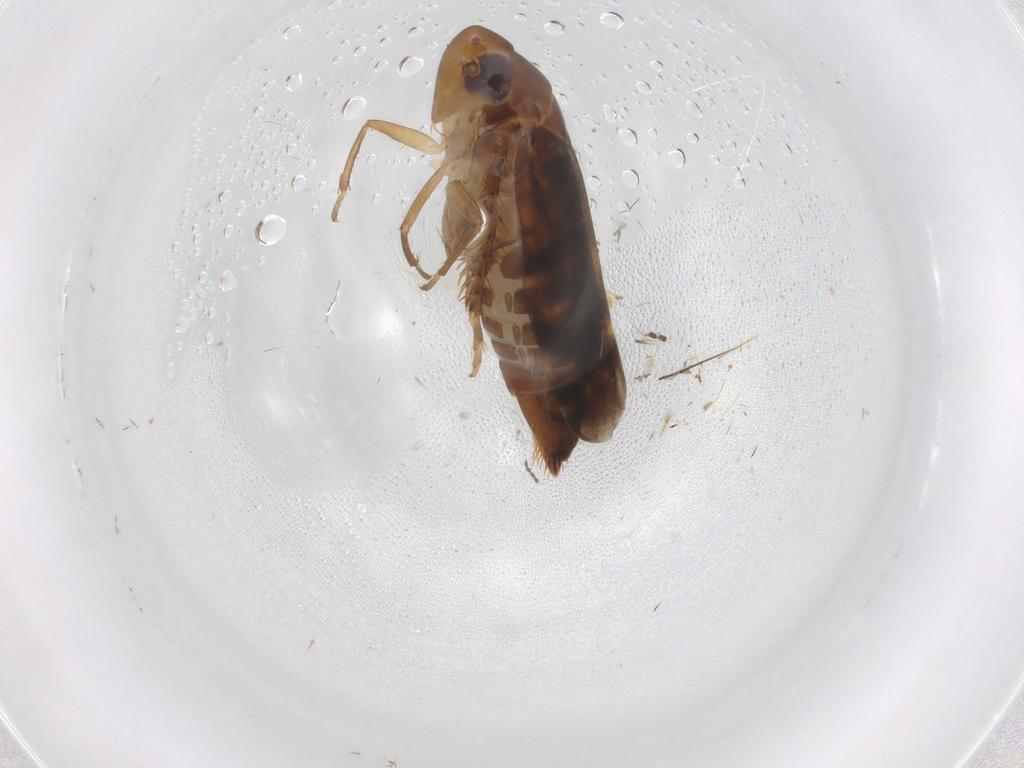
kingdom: Animalia
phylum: Arthropoda
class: Insecta
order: Hemiptera
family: Cicadellidae
